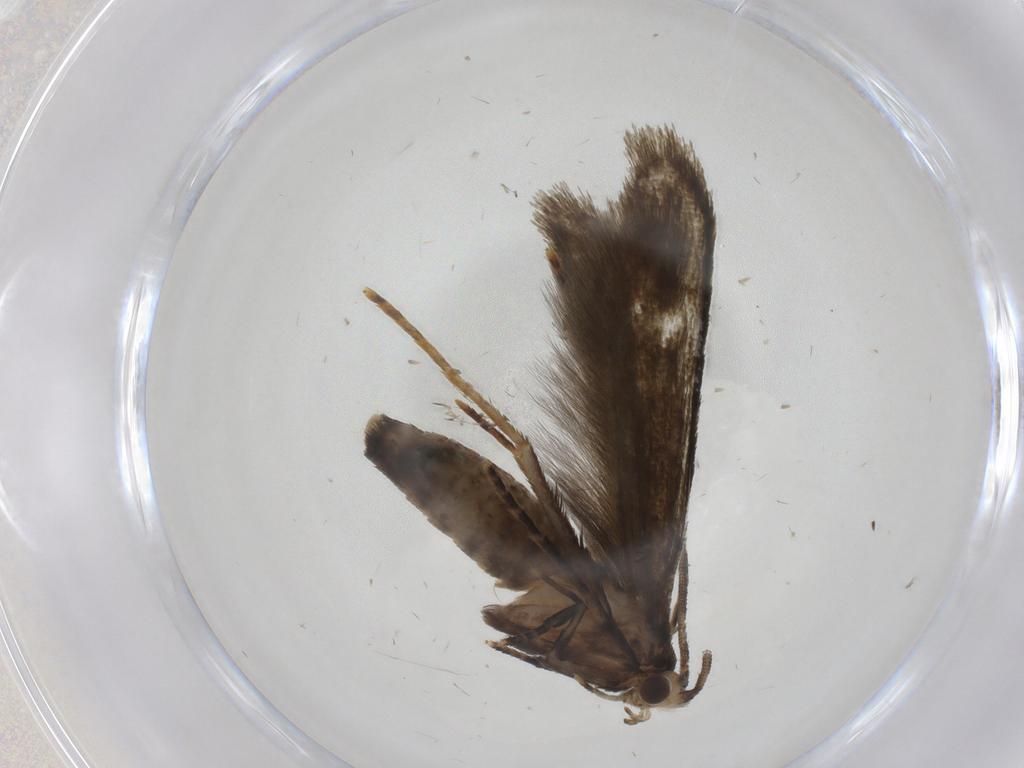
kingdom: Animalia
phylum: Arthropoda
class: Insecta
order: Lepidoptera
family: Tineidae
